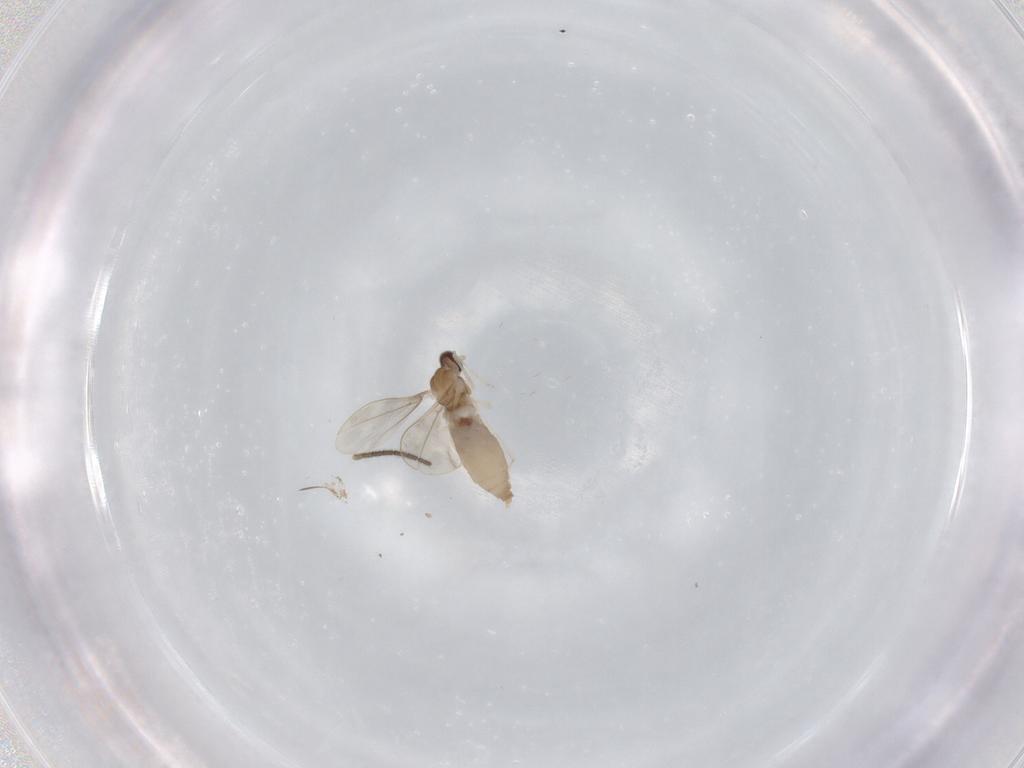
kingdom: Animalia
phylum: Arthropoda
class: Insecta
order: Diptera
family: Cecidomyiidae
